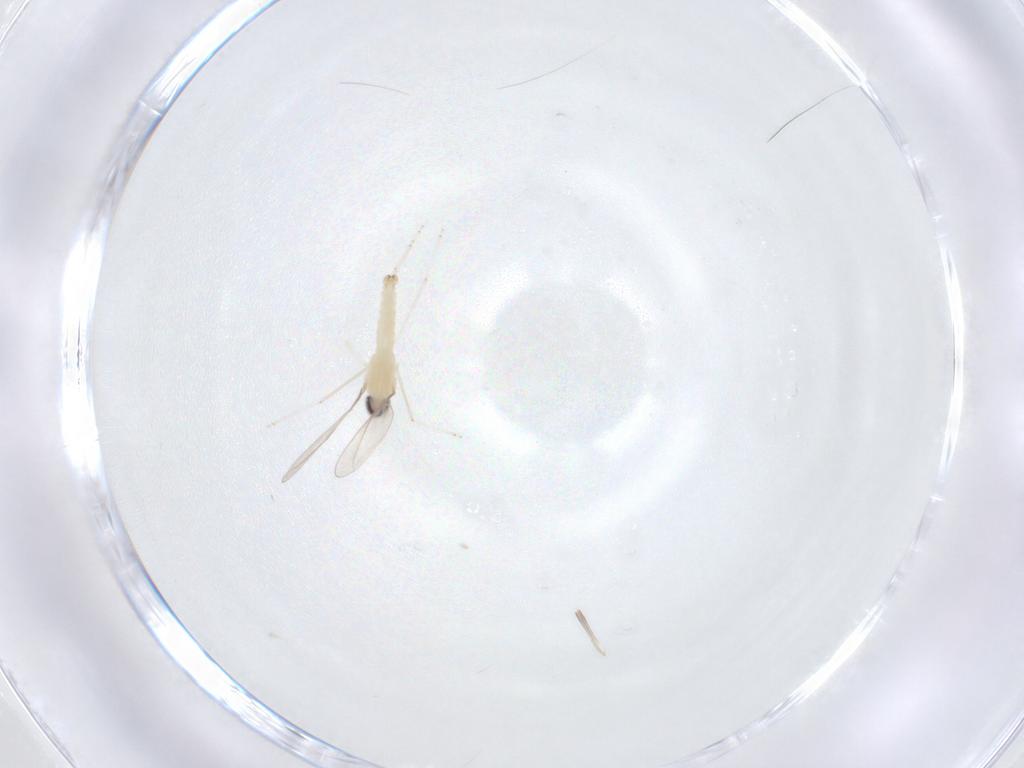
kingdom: Animalia
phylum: Arthropoda
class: Insecta
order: Diptera
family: Cecidomyiidae
